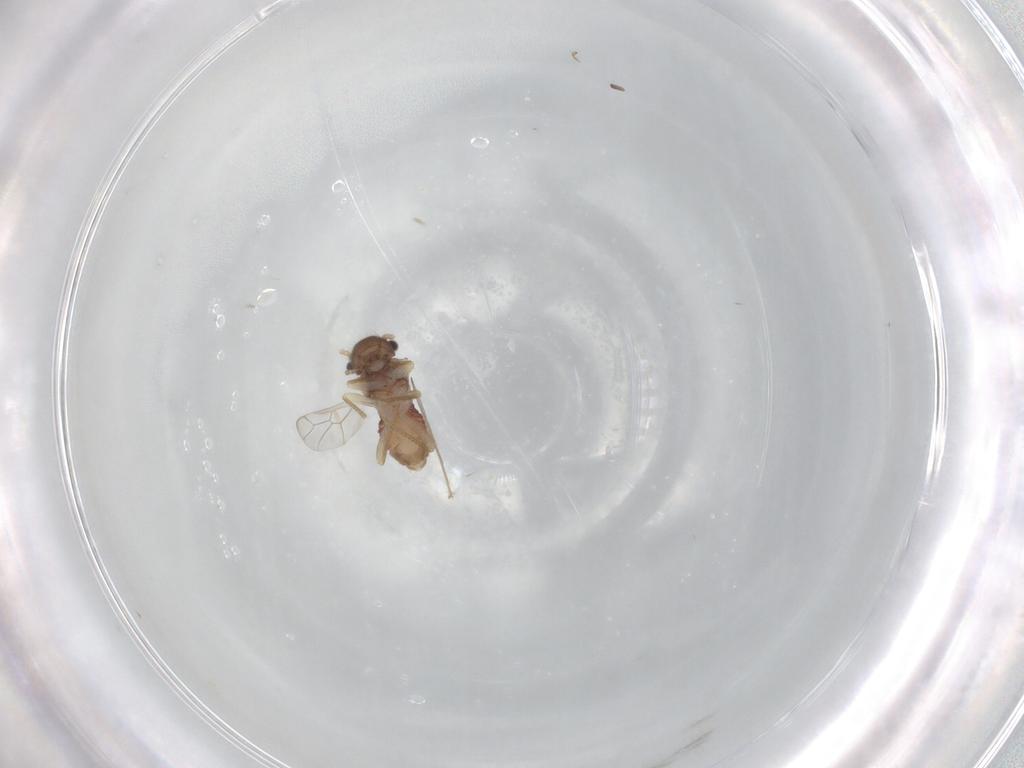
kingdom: Animalia
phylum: Arthropoda
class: Insecta
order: Psocodea
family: Peripsocidae
